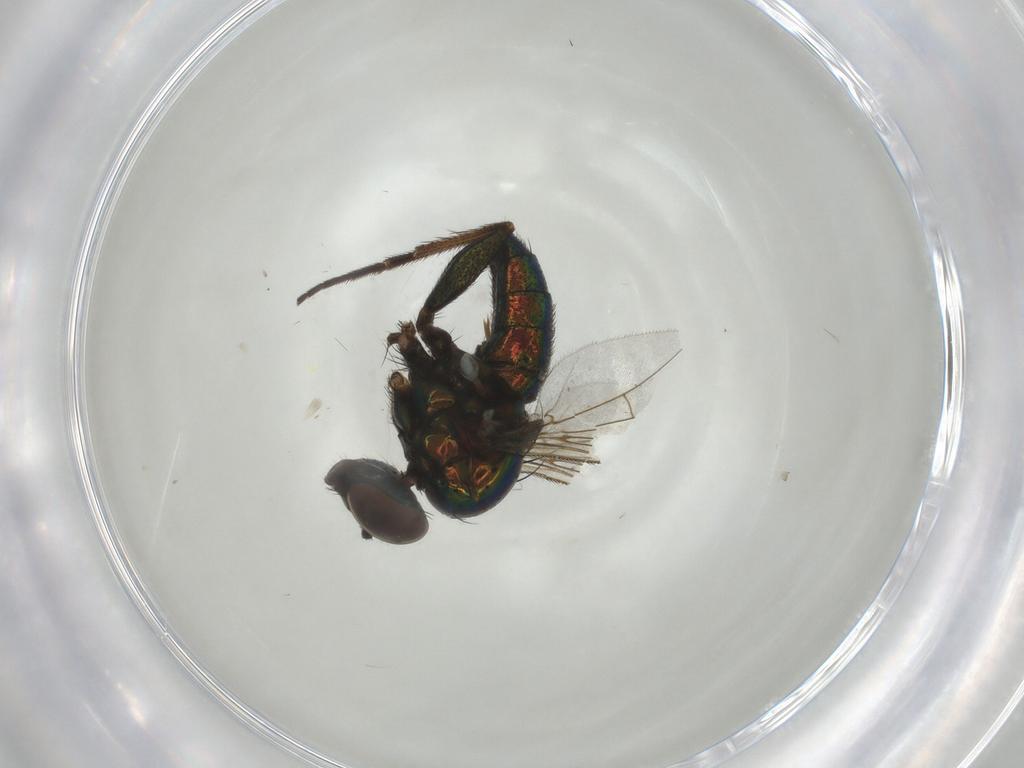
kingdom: Animalia
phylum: Arthropoda
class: Insecta
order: Diptera
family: Dolichopodidae
